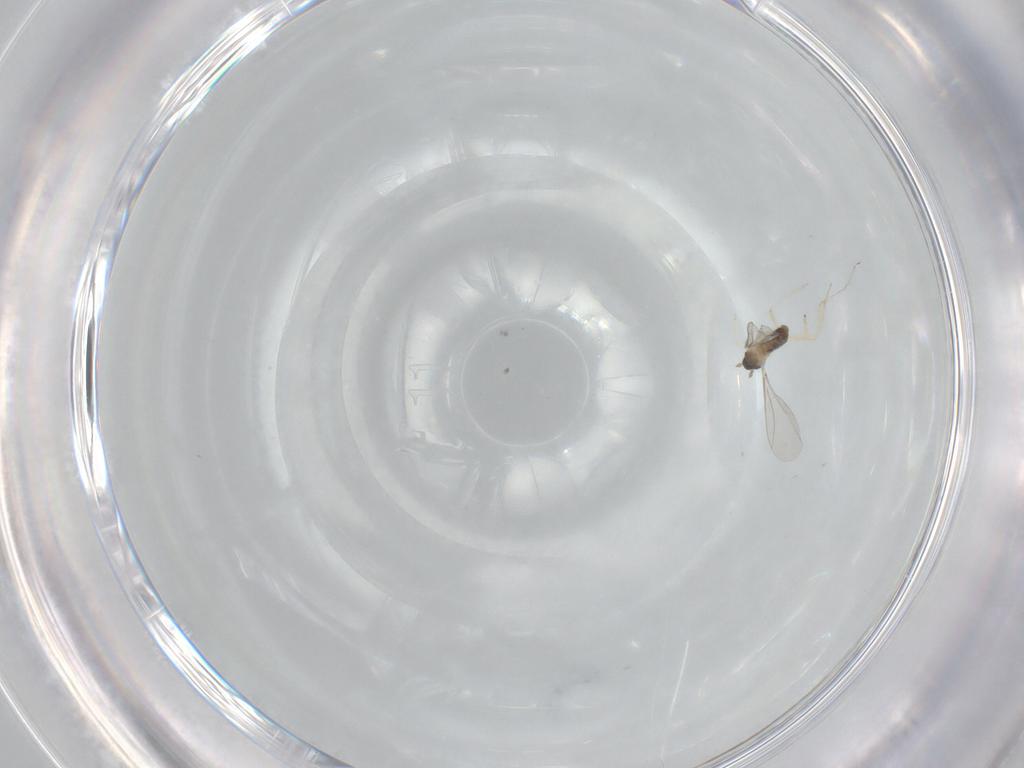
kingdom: Animalia
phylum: Arthropoda
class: Insecta
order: Diptera
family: Cecidomyiidae
